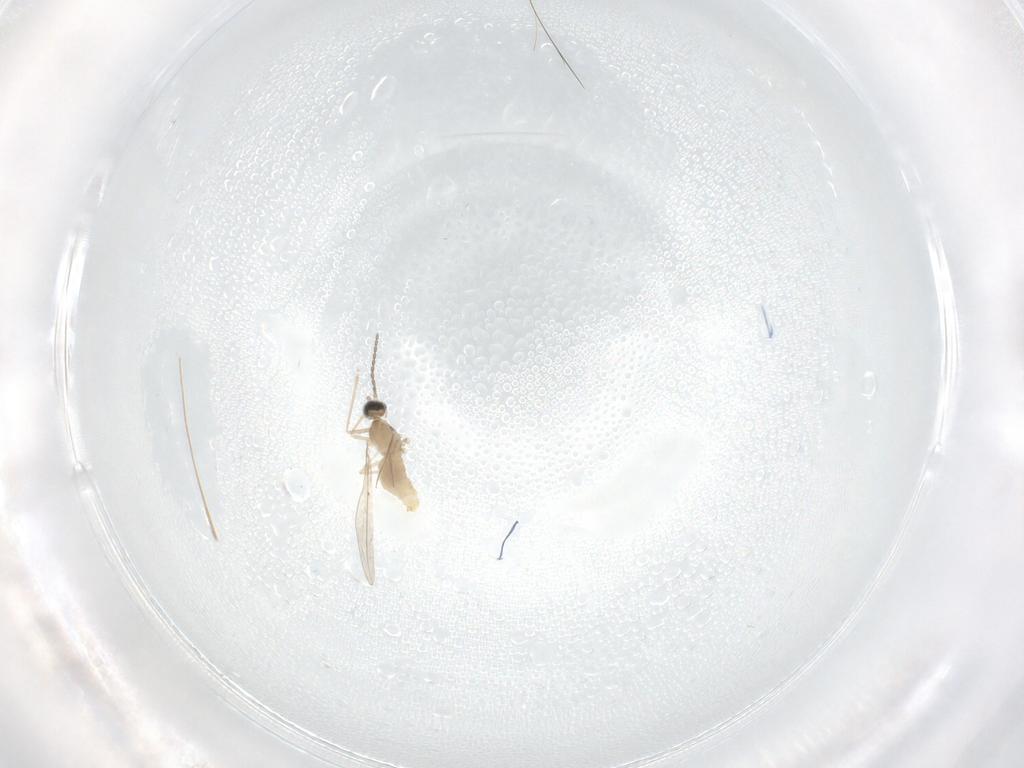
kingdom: Animalia
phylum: Arthropoda
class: Insecta
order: Diptera
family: Cecidomyiidae
